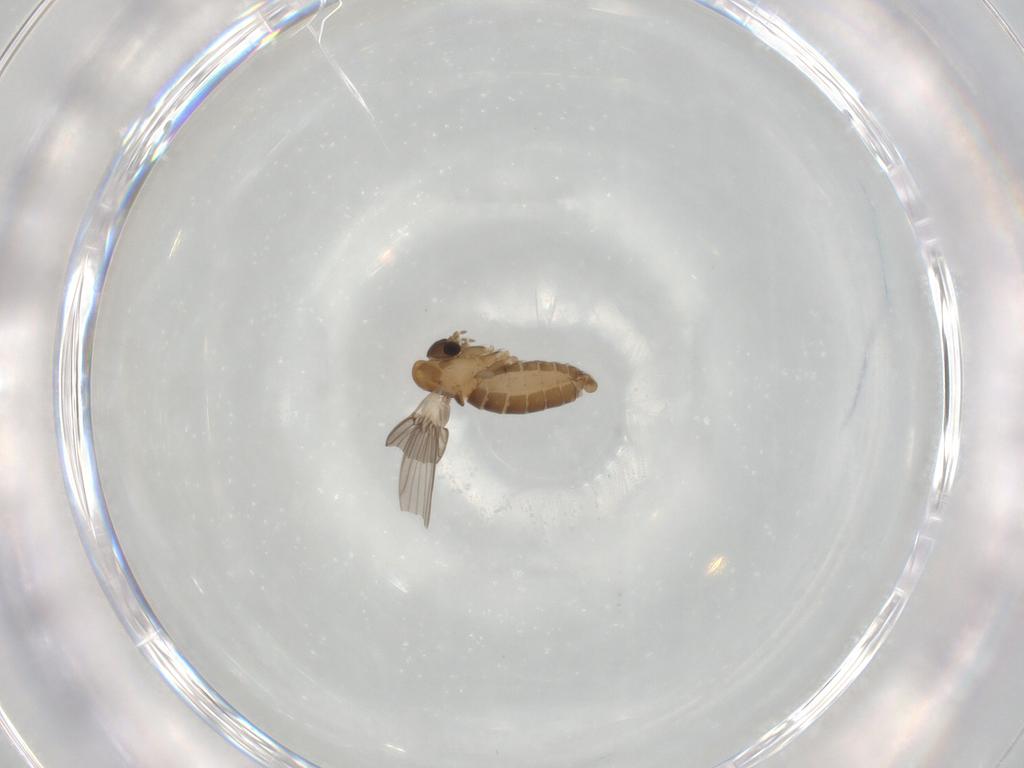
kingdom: Animalia
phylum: Arthropoda
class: Insecta
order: Diptera
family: Psychodidae
